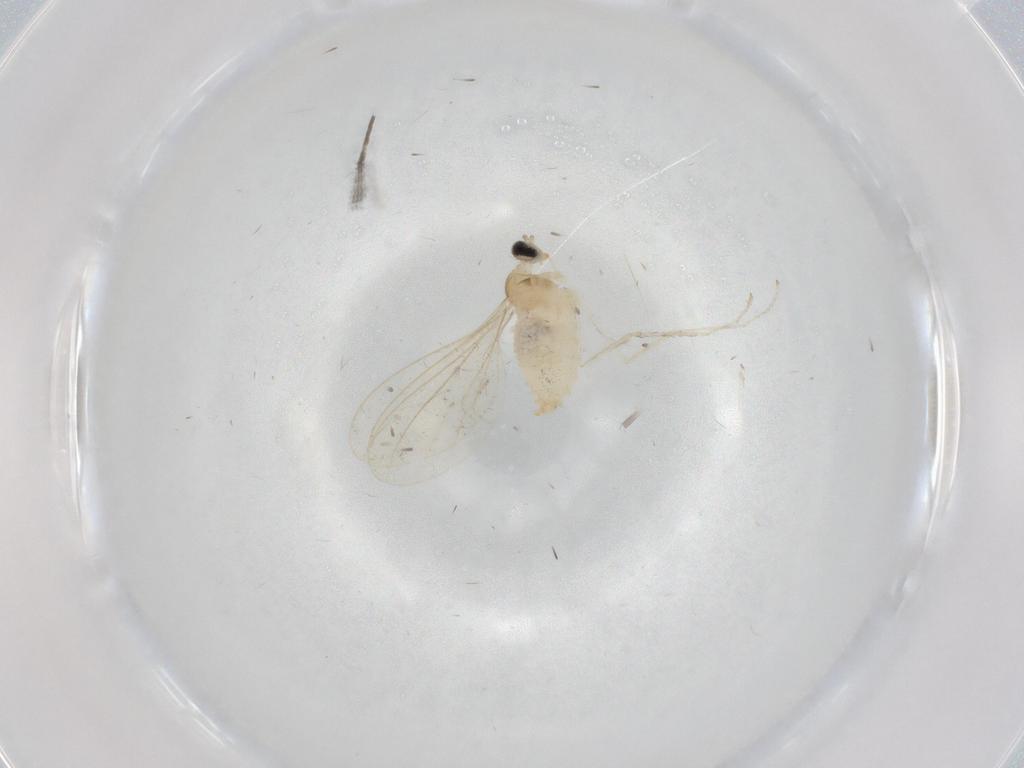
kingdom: Animalia
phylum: Arthropoda
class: Insecta
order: Diptera
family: Cecidomyiidae
